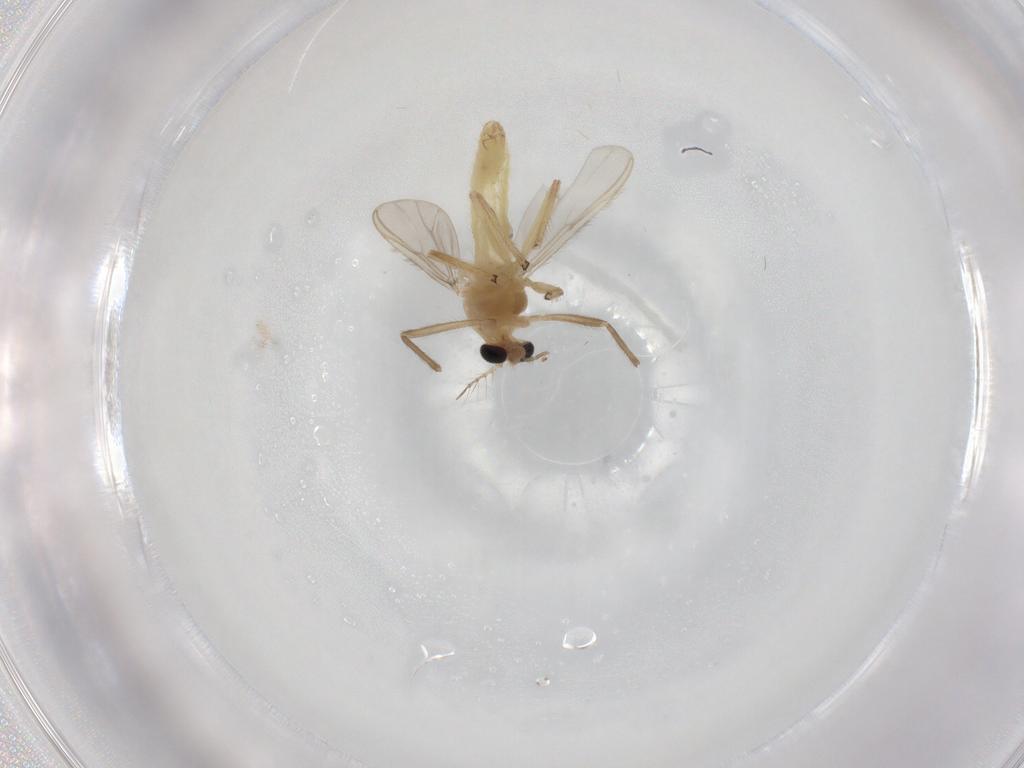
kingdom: Animalia
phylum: Arthropoda
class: Insecta
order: Diptera
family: Chironomidae
